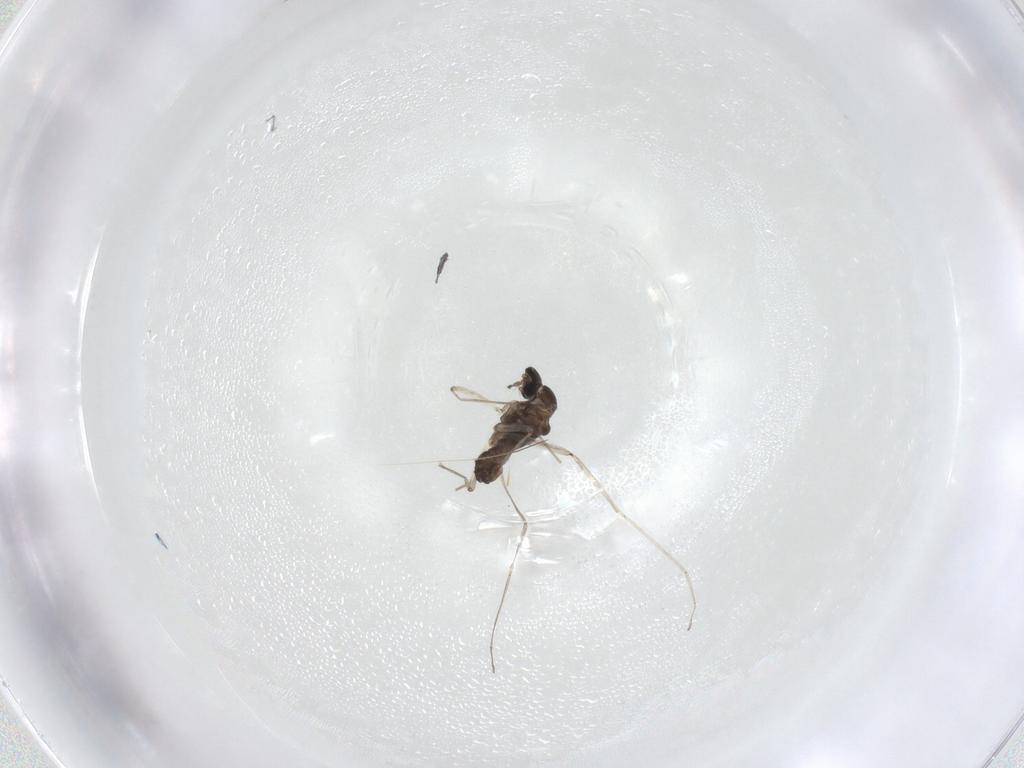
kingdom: Animalia
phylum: Arthropoda
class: Insecta
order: Diptera
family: Cecidomyiidae
